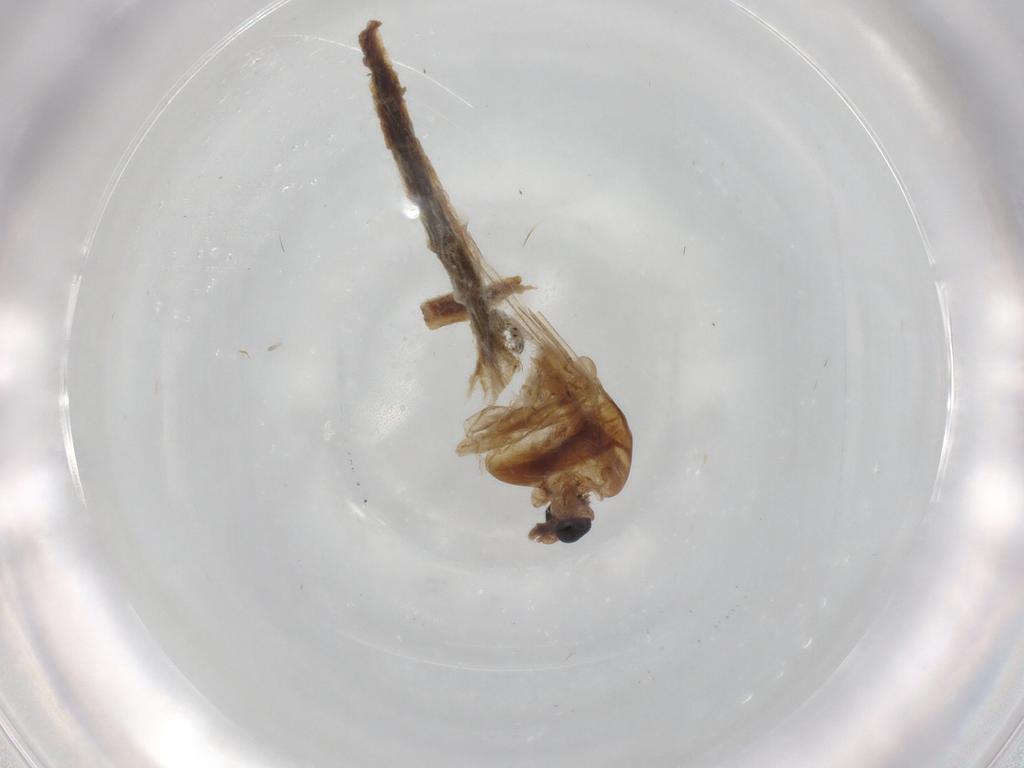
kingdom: Animalia
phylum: Arthropoda
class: Insecta
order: Diptera
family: Chironomidae
